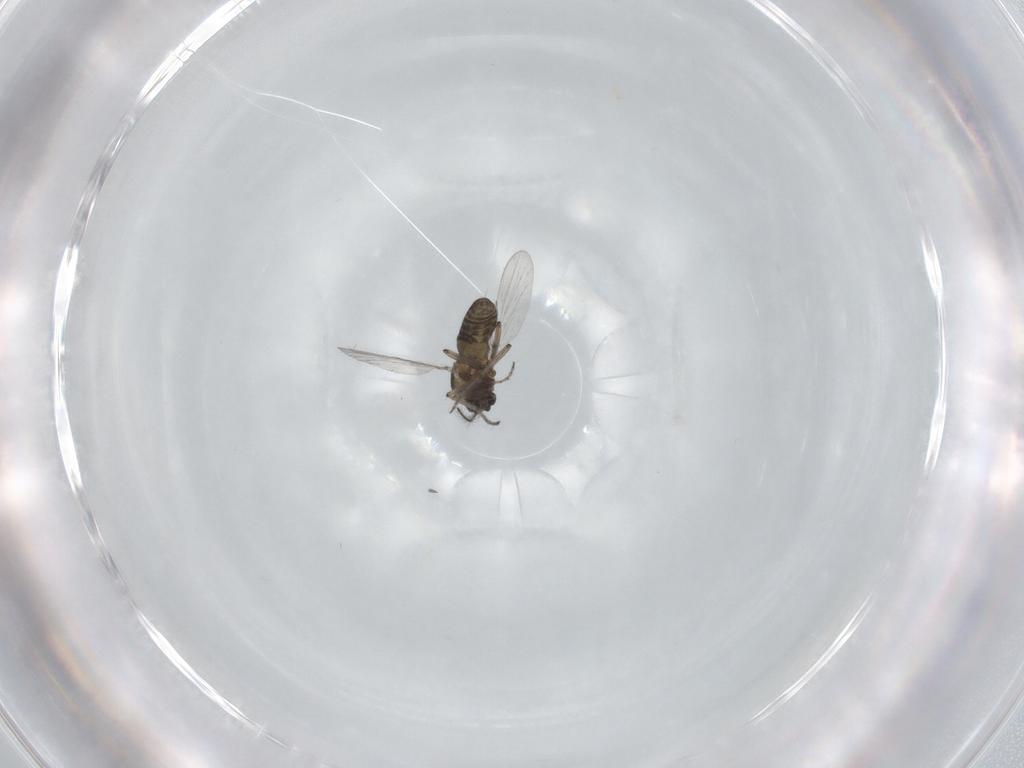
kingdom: Animalia
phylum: Arthropoda
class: Insecta
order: Diptera
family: Ceratopogonidae
